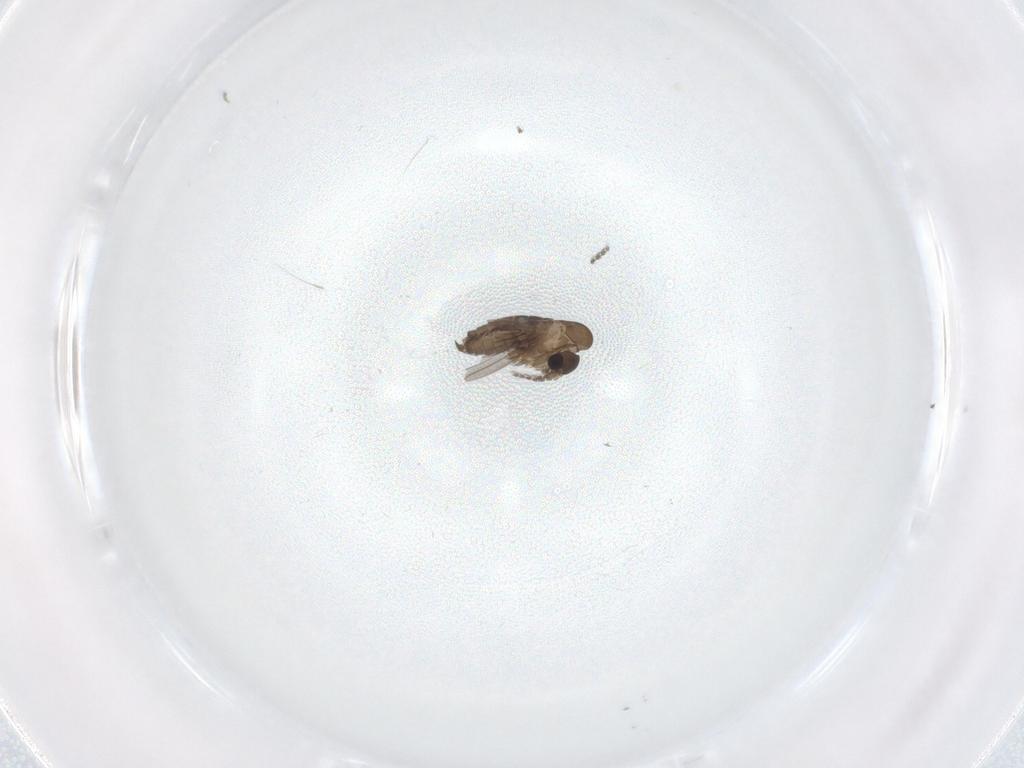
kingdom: Animalia
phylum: Arthropoda
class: Insecta
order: Diptera
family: Sciaridae
